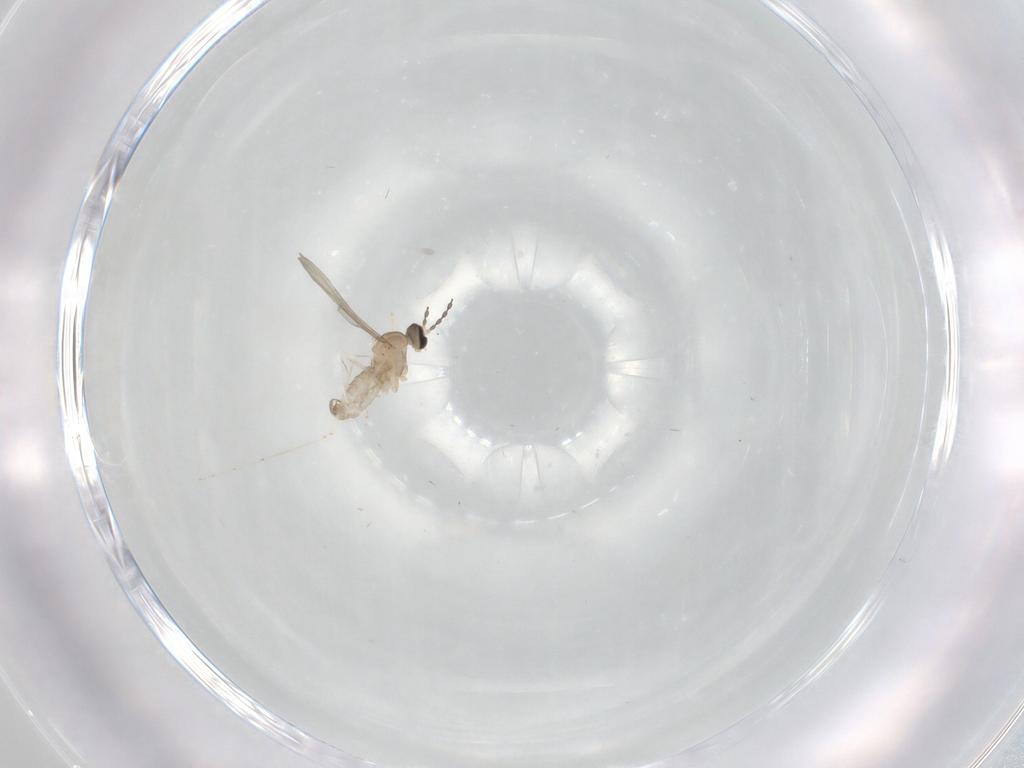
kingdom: Animalia
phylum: Arthropoda
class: Insecta
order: Diptera
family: Cecidomyiidae
